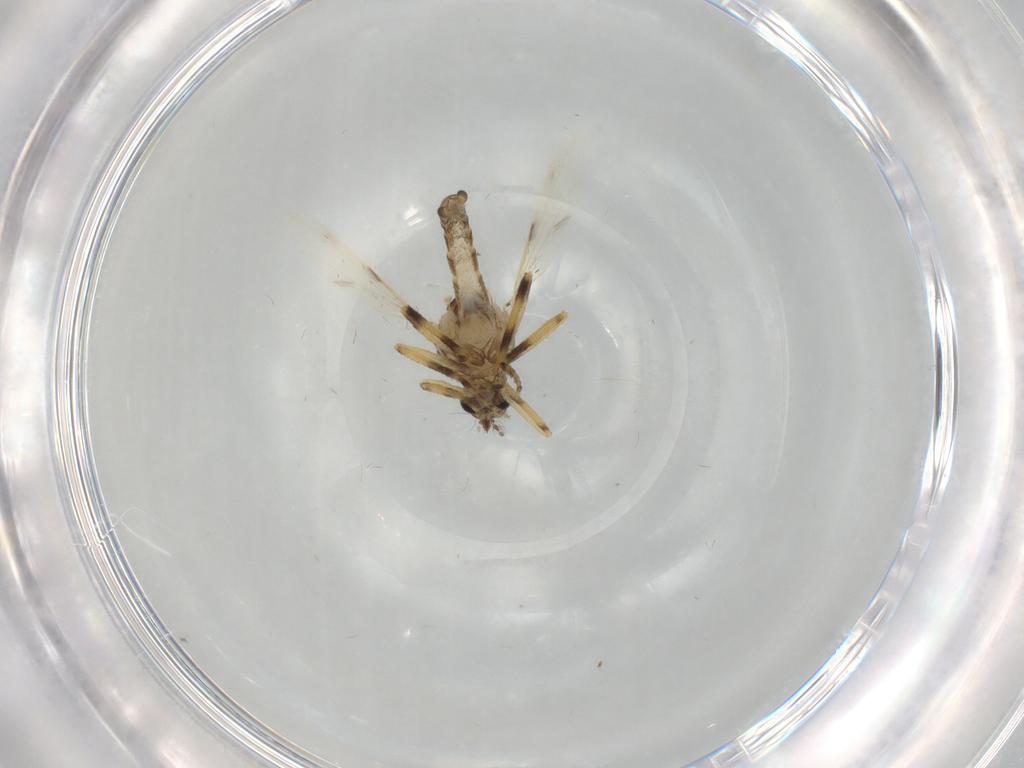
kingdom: Animalia
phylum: Arthropoda
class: Insecta
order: Diptera
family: Ceratopogonidae
